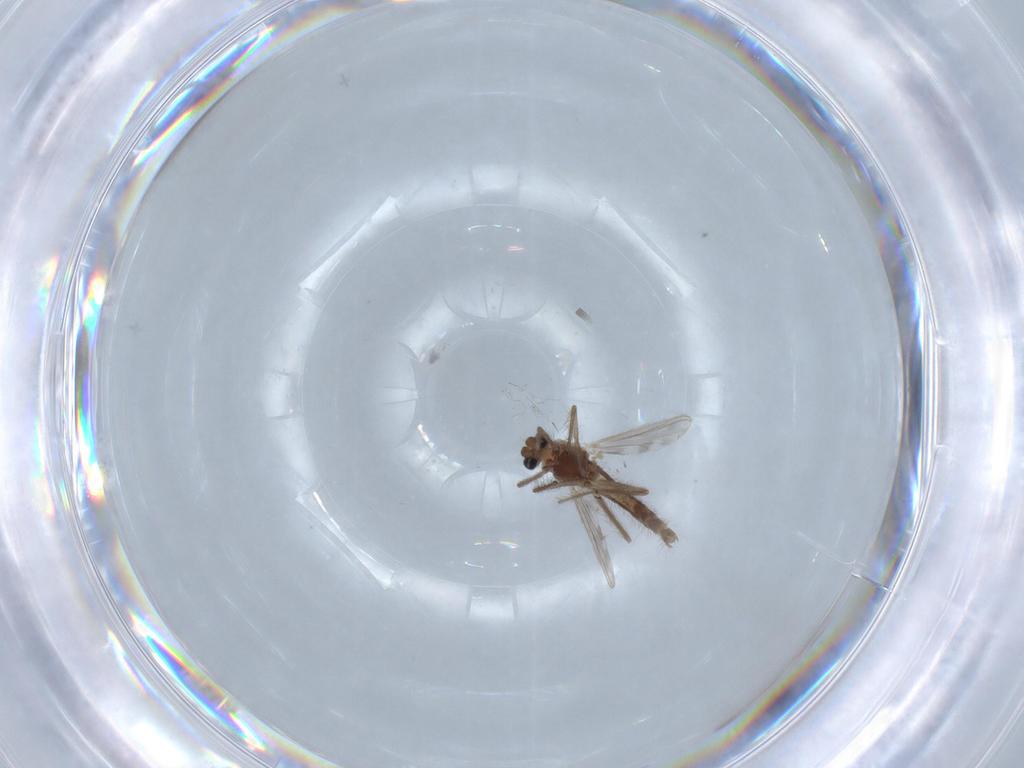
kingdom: Animalia
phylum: Arthropoda
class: Insecta
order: Diptera
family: Chironomidae
